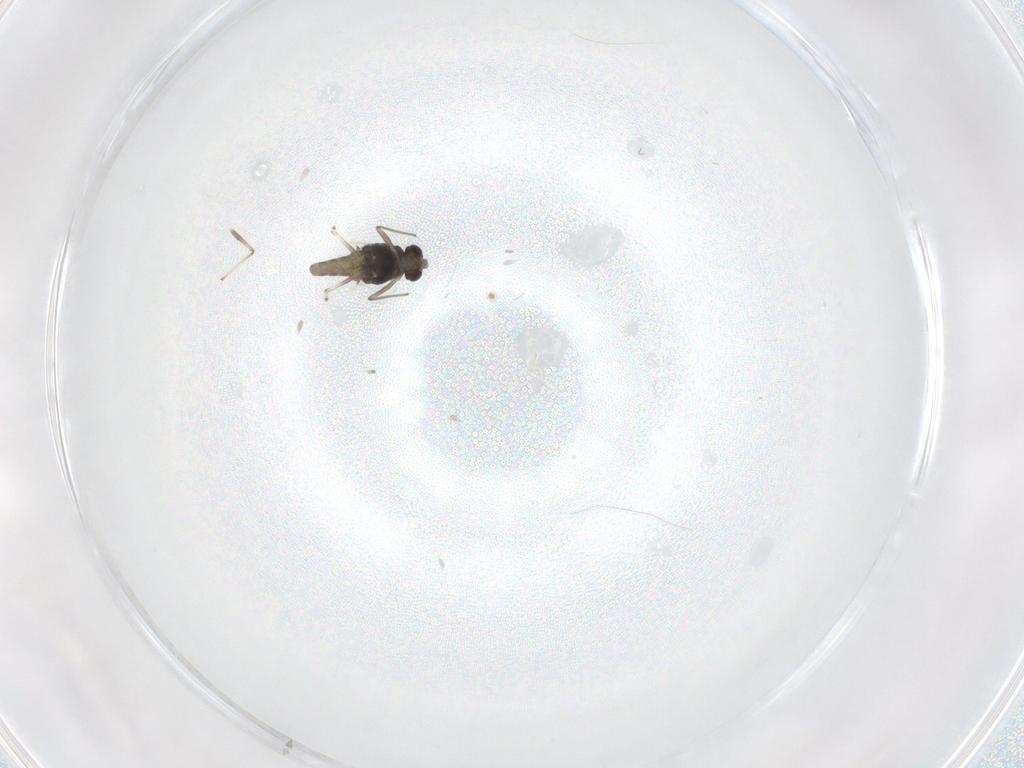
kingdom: Animalia
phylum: Arthropoda
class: Insecta
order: Diptera
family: Chironomidae
